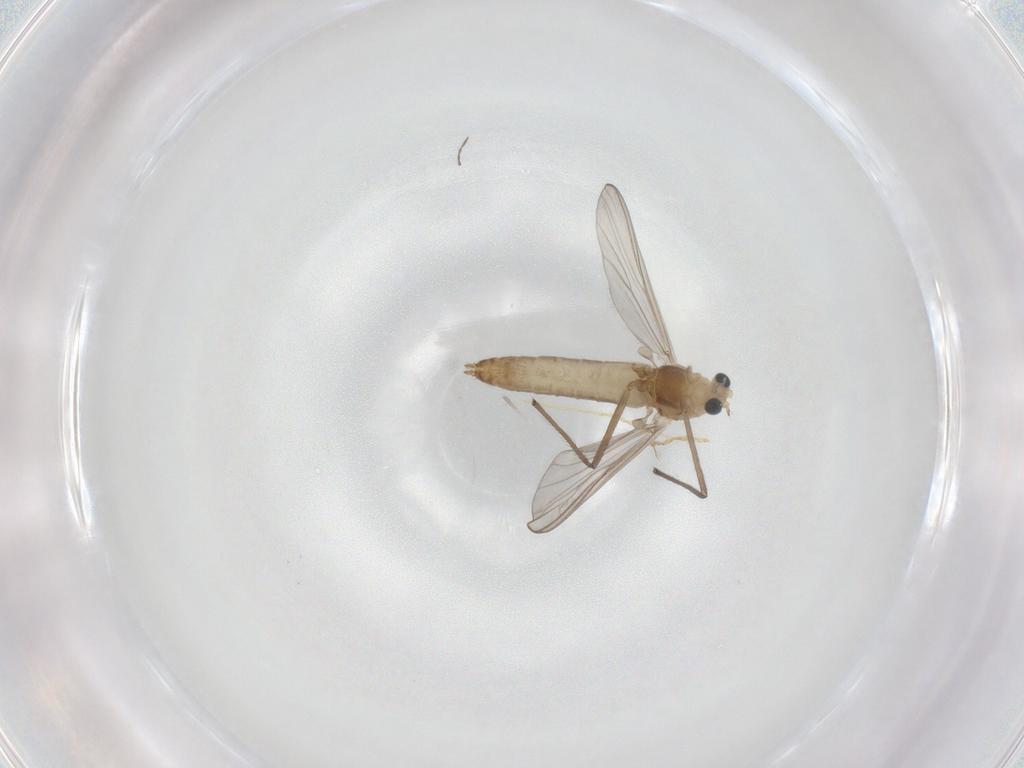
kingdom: Animalia
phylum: Arthropoda
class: Insecta
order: Diptera
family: Chironomidae
